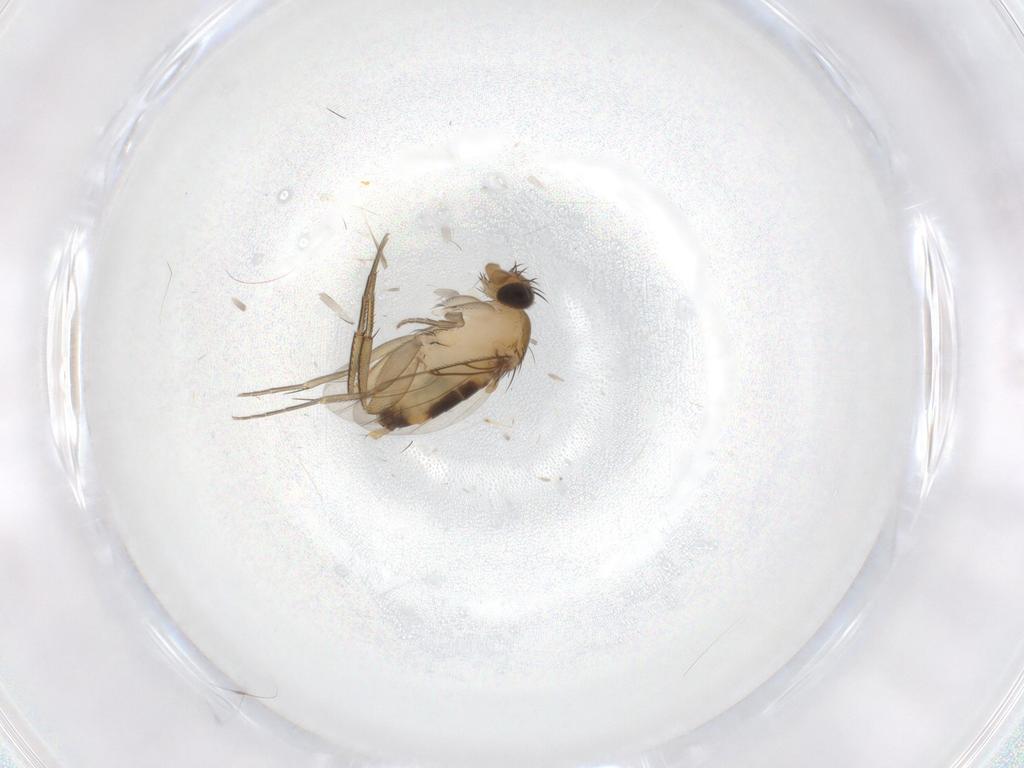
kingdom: Animalia
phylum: Arthropoda
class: Insecta
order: Diptera
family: Phoridae
